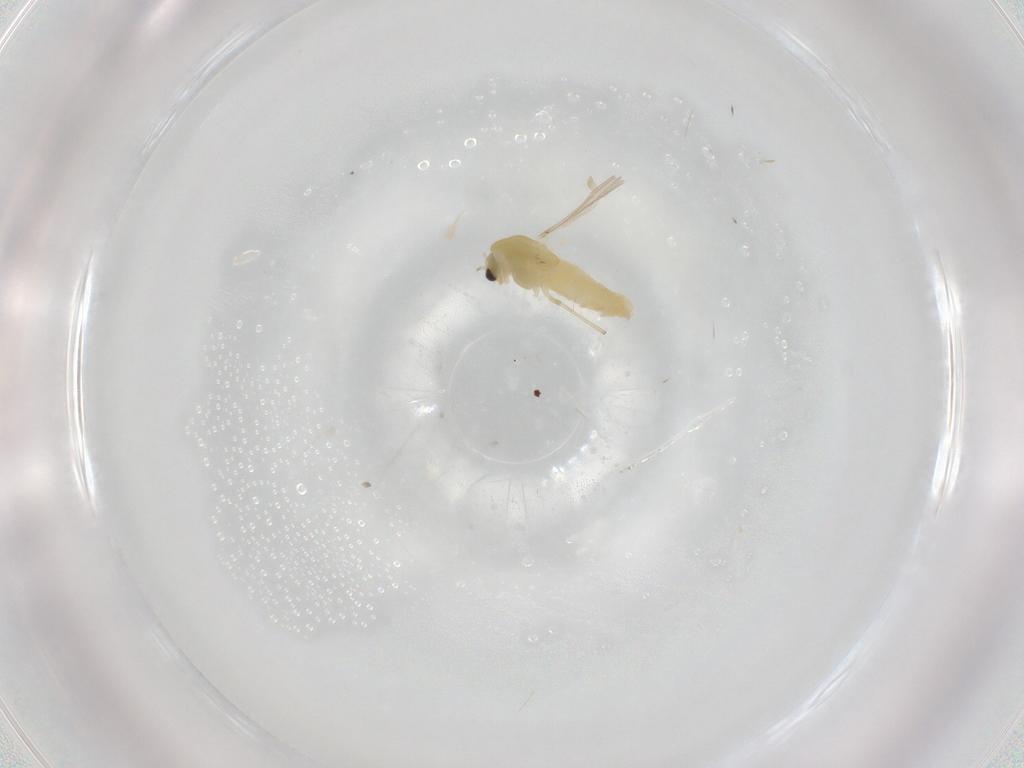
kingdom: Animalia
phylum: Arthropoda
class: Insecta
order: Diptera
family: Chironomidae
